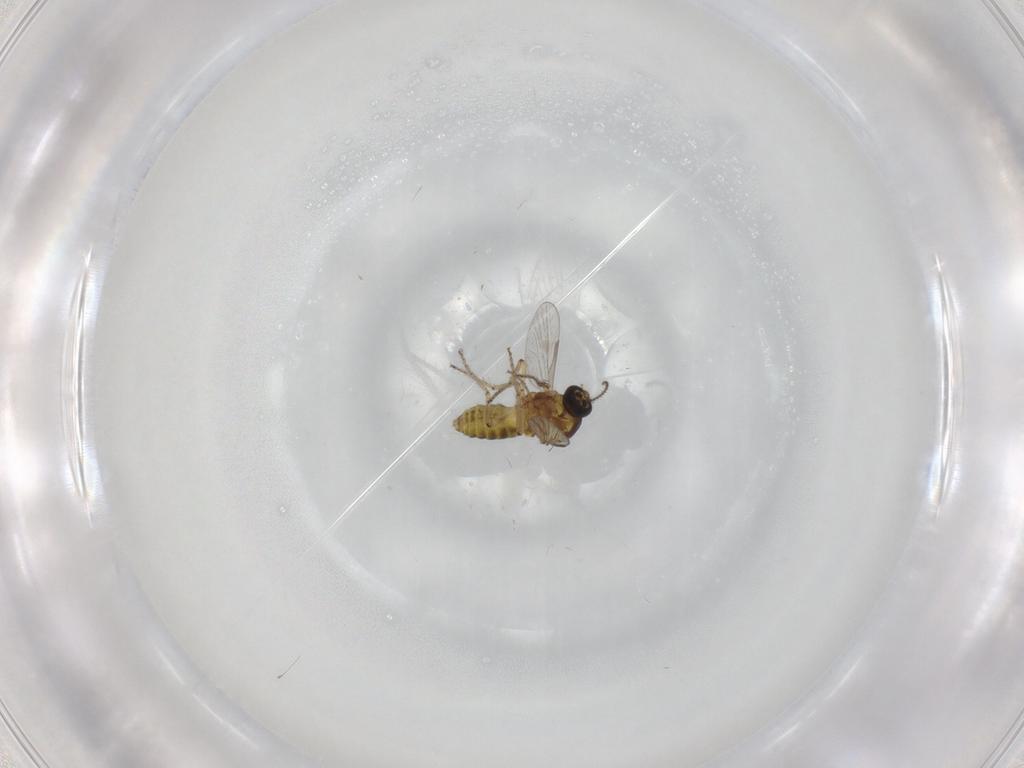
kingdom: Animalia
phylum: Arthropoda
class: Insecta
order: Diptera
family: Ceratopogonidae
